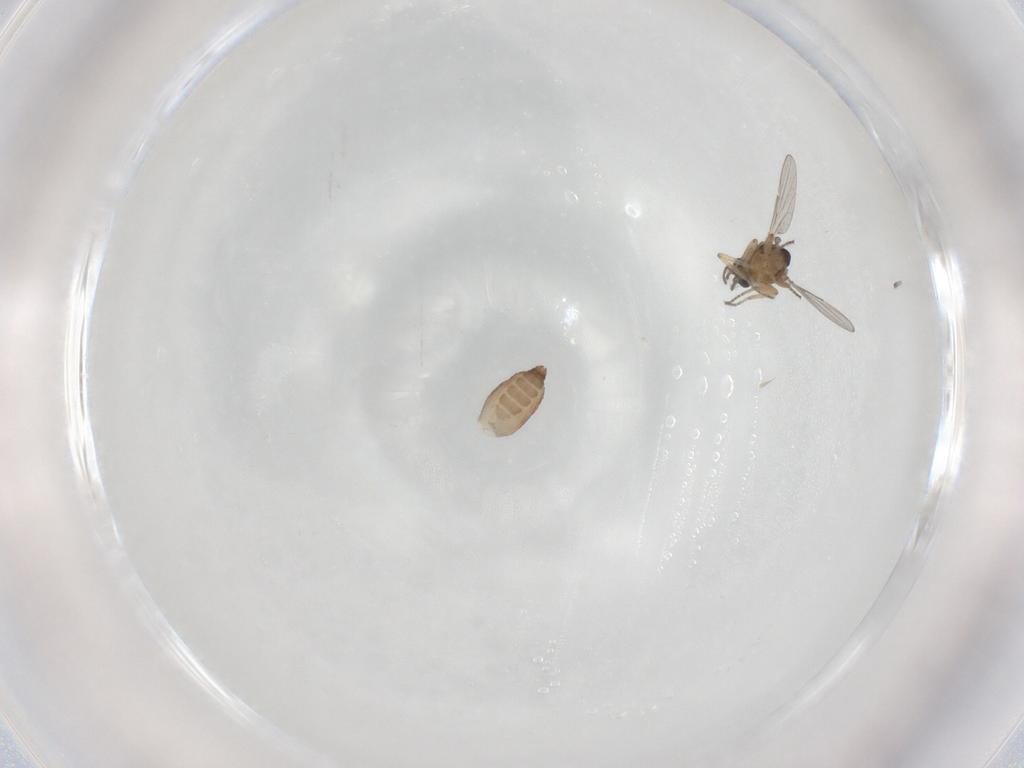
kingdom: Animalia
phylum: Arthropoda
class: Insecta
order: Diptera
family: Ceratopogonidae
